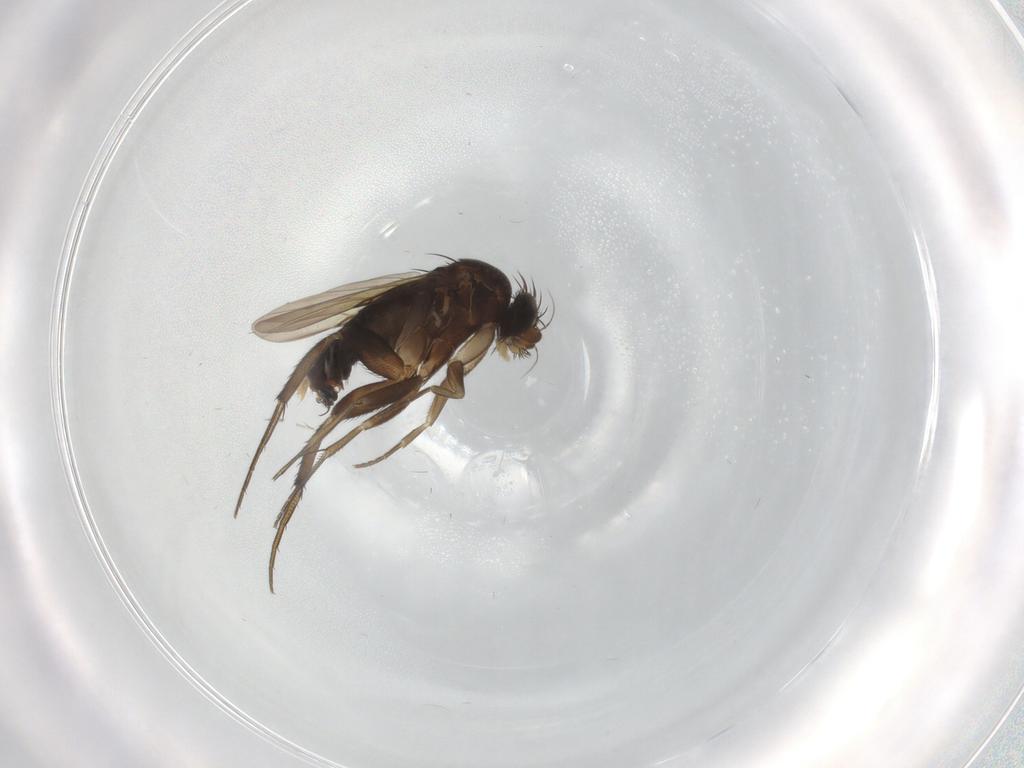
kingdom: Animalia
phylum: Arthropoda
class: Insecta
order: Diptera
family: Phoridae
